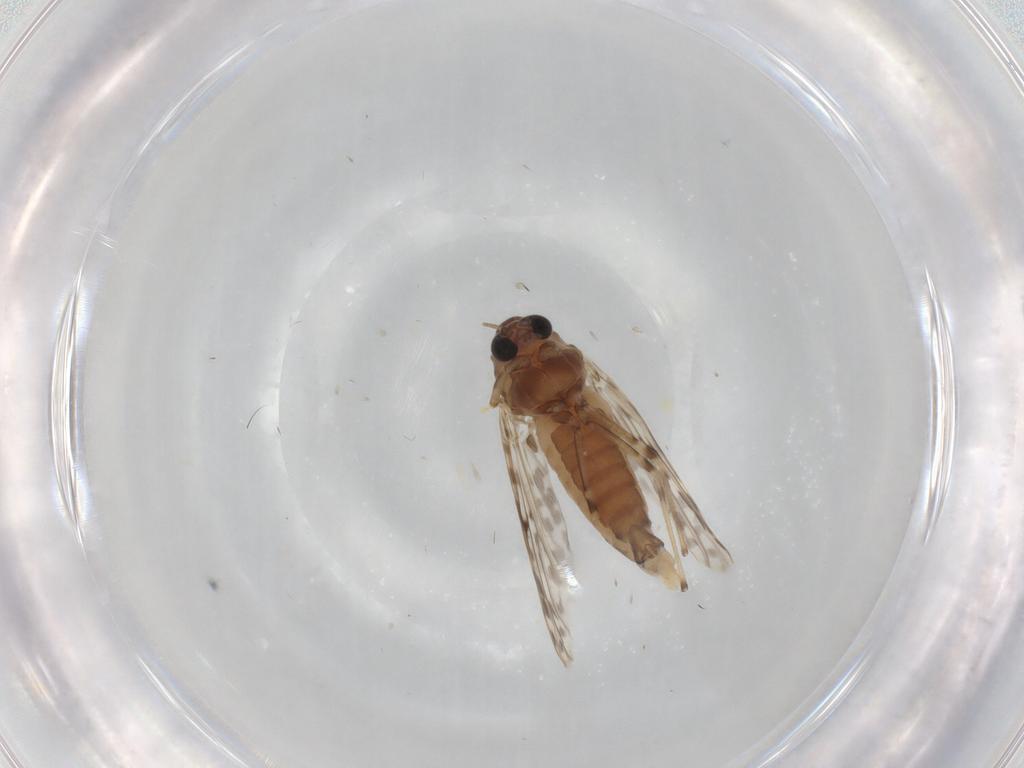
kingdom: Animalia
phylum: Arthropoda
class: Insecta
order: Diptera
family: Chironomidae
